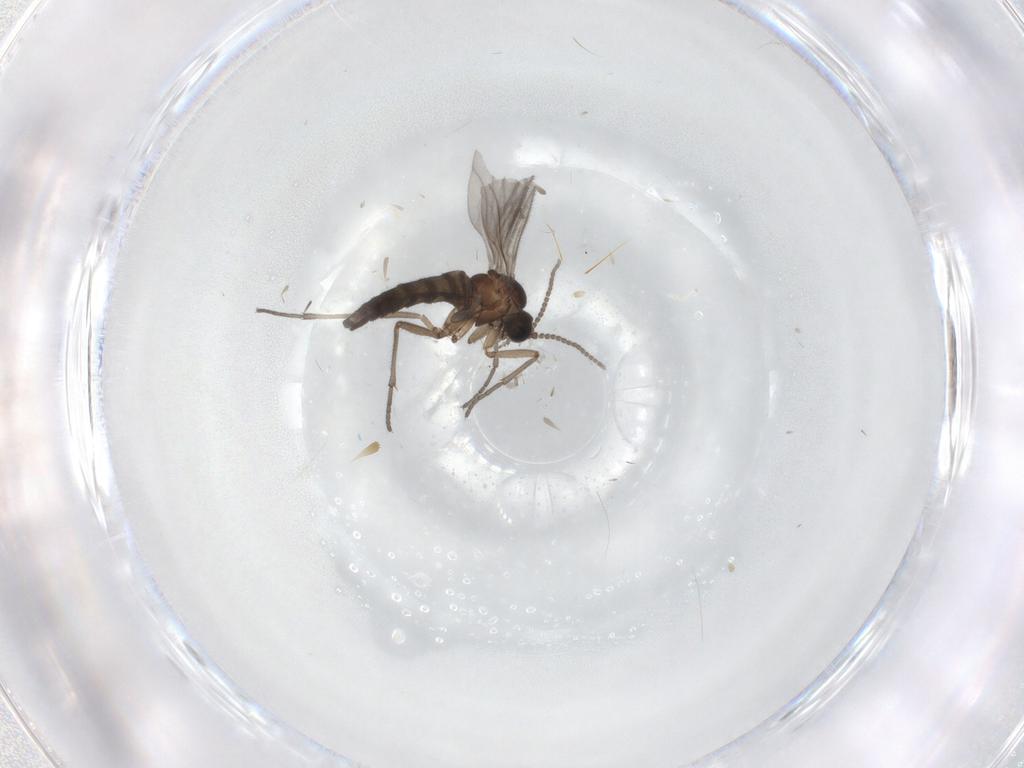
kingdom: Animalia
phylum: Arthropoda
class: Insecta
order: Diptera
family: Sciaridae
